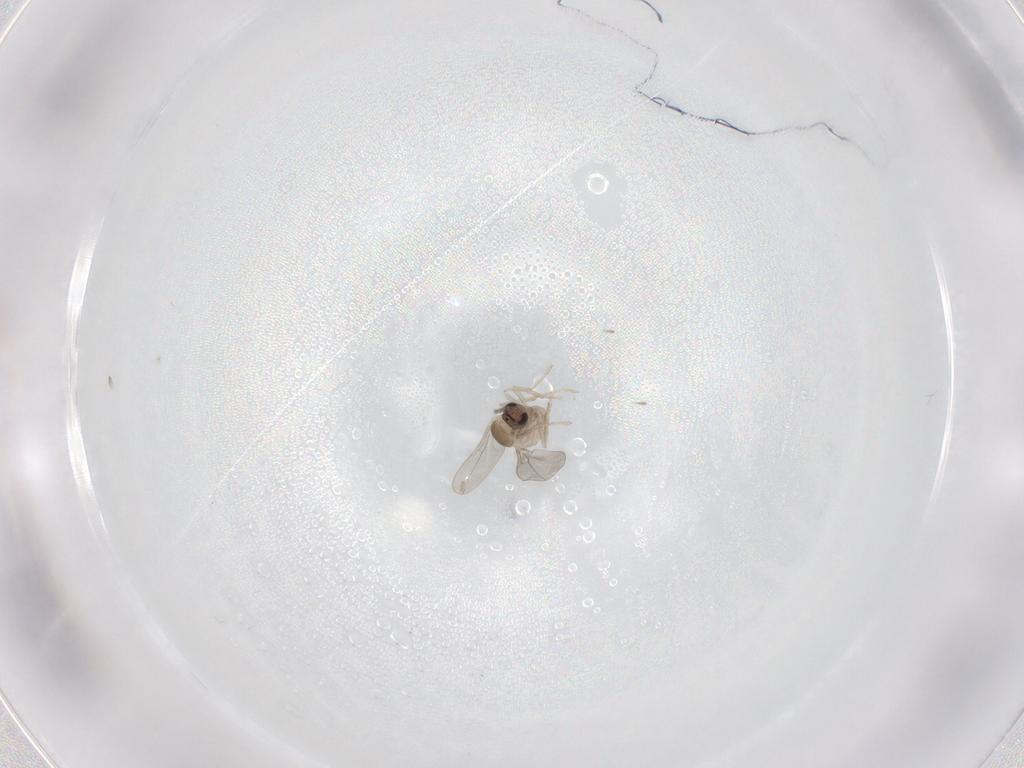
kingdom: Animalia
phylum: Arthropoda
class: Insecta
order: Diptera
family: Cecidomyiidae
